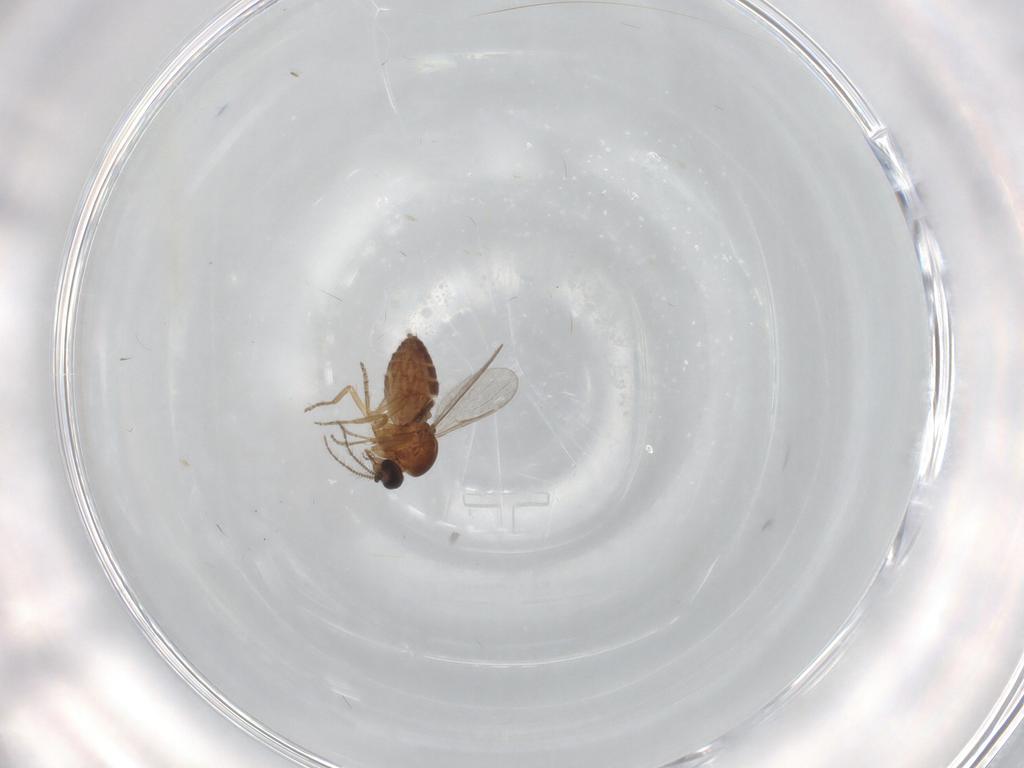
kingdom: Animalia
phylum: Arthropoda
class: Insecta
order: Diptera
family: Ceratopogonidae
